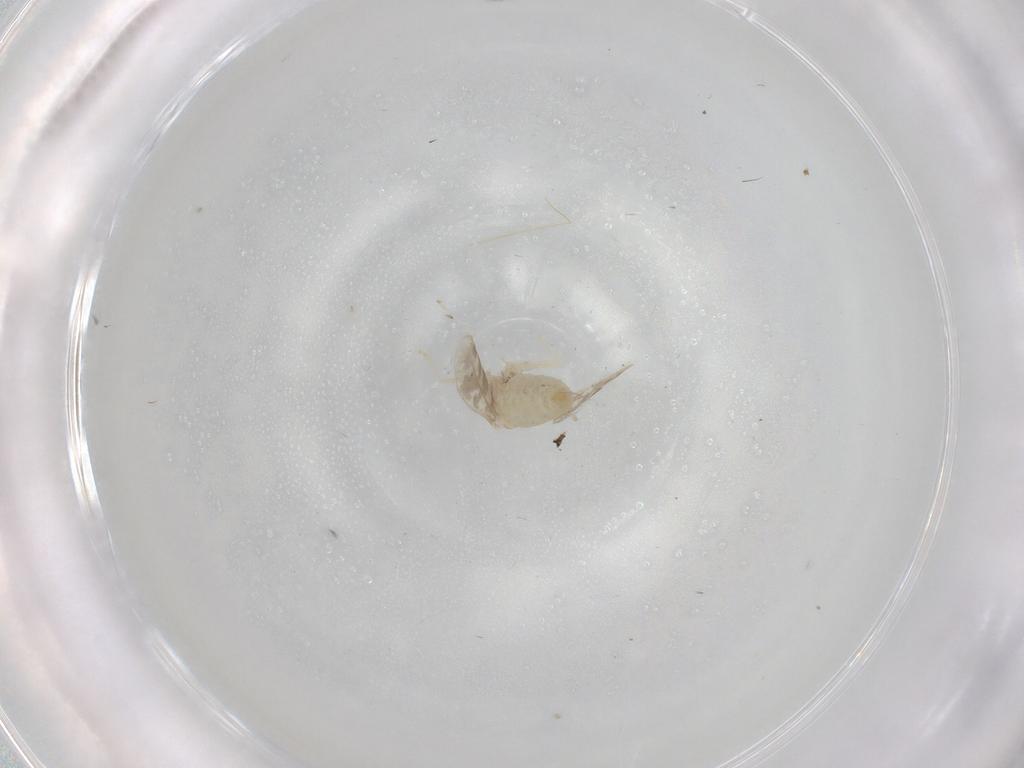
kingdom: Animalia
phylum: Arthropoda
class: Insecta
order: Diptera
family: Cecidomyiidae
